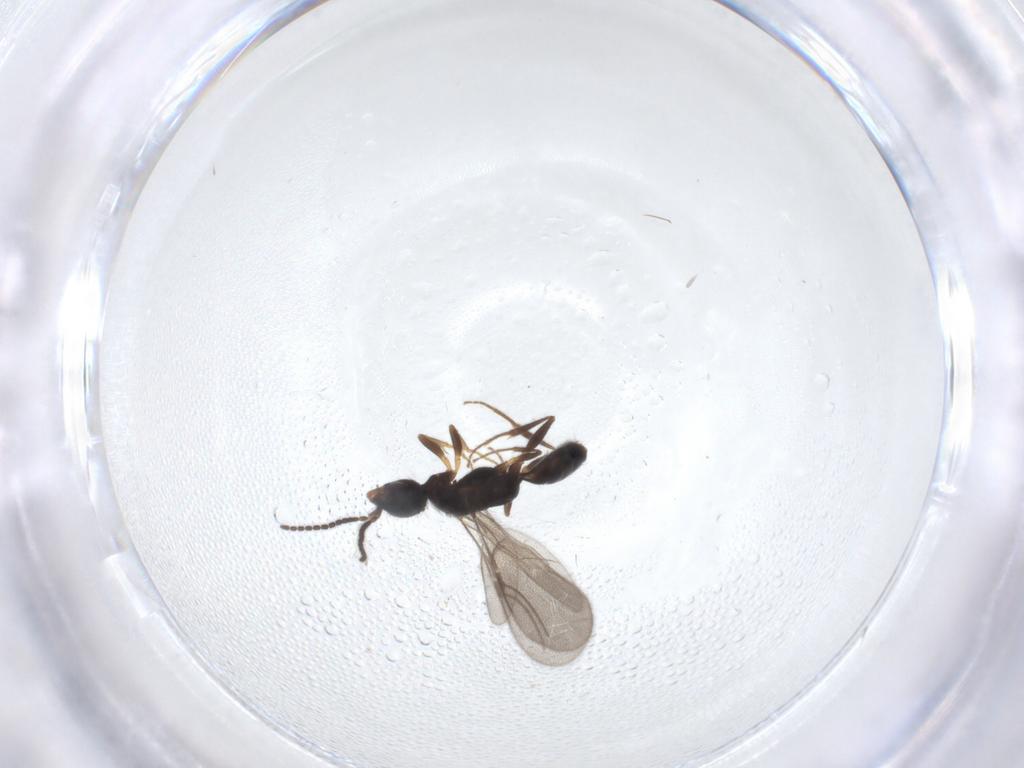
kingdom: Animalia
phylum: Arthropoda
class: Insecta
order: Hymenoptera
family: Bethylidae
